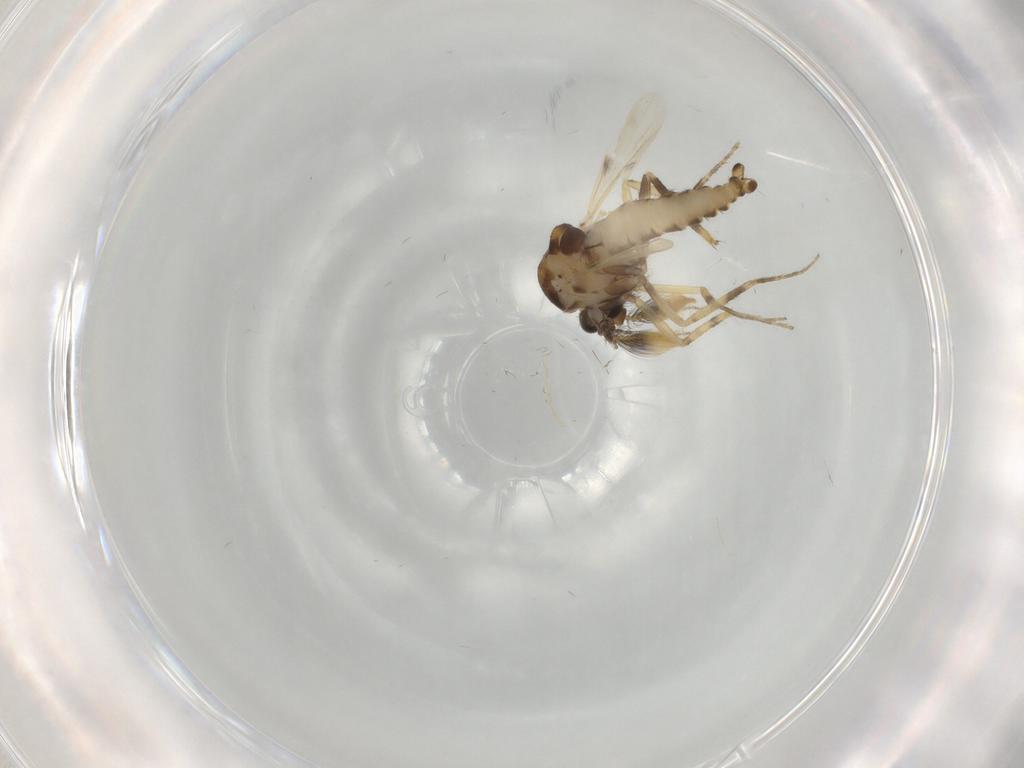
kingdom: Animalia
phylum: Arthropoda
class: Insecta
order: Diptera
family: Ceratopogonidae
